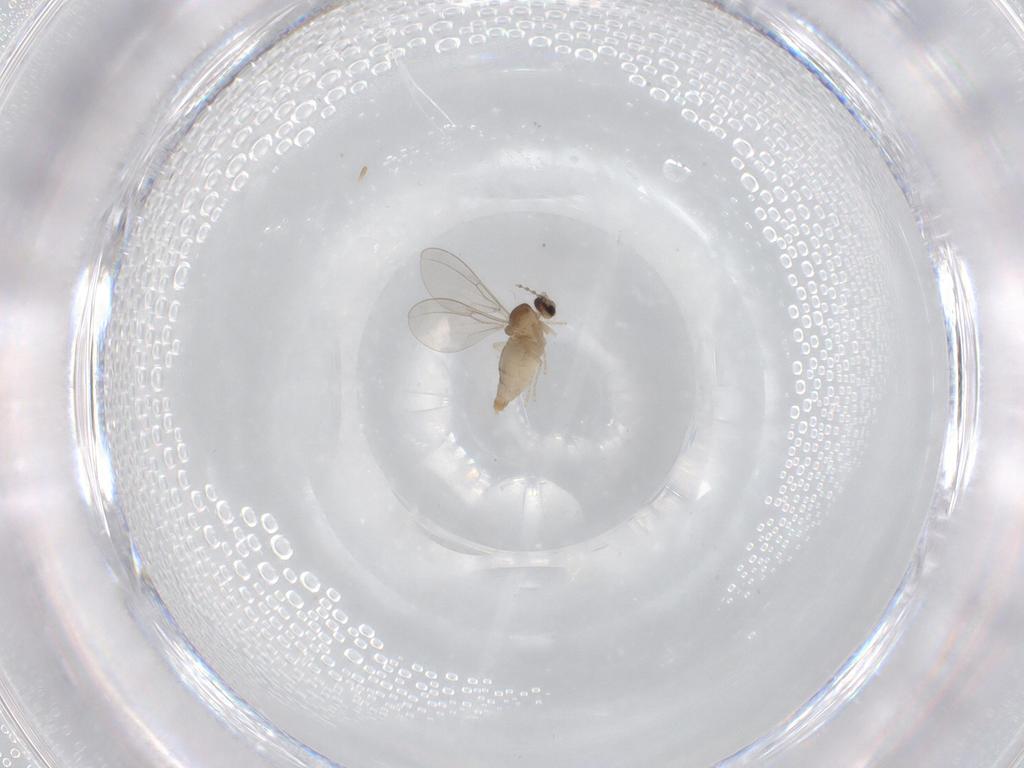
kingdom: Animalia
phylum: Arthropoda
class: Insecta
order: Diptera
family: Cecidomyiidae
